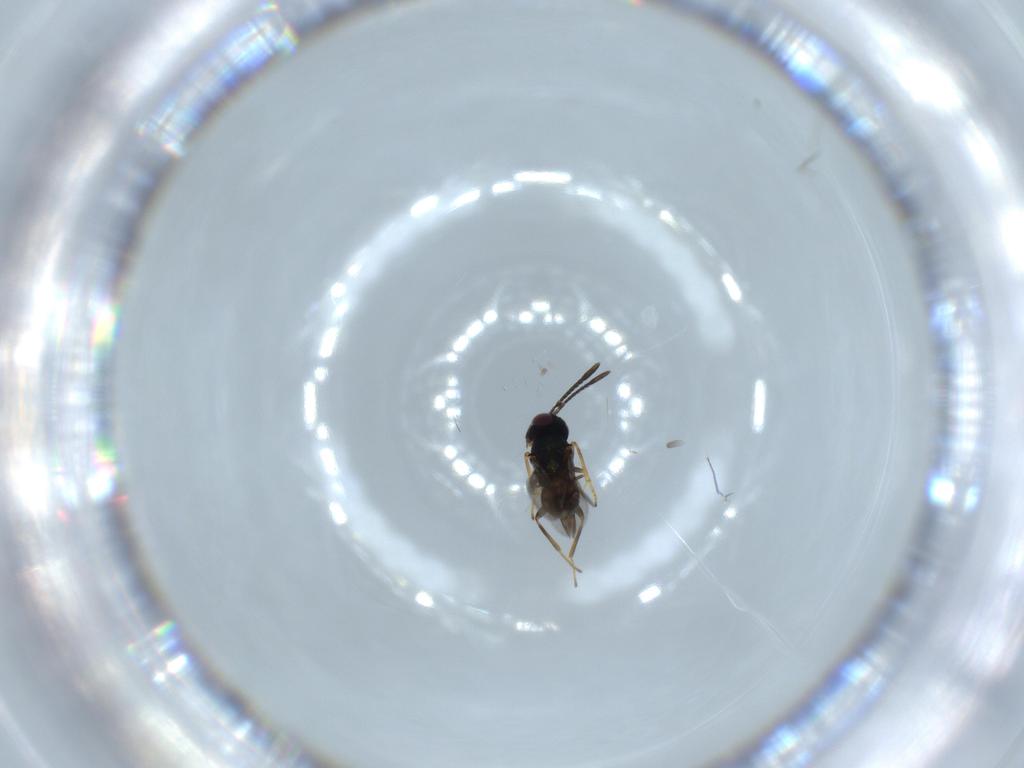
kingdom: Animalia
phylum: Arthropoda
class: Insecta
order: Hymenoptera
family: Encyrtidae
